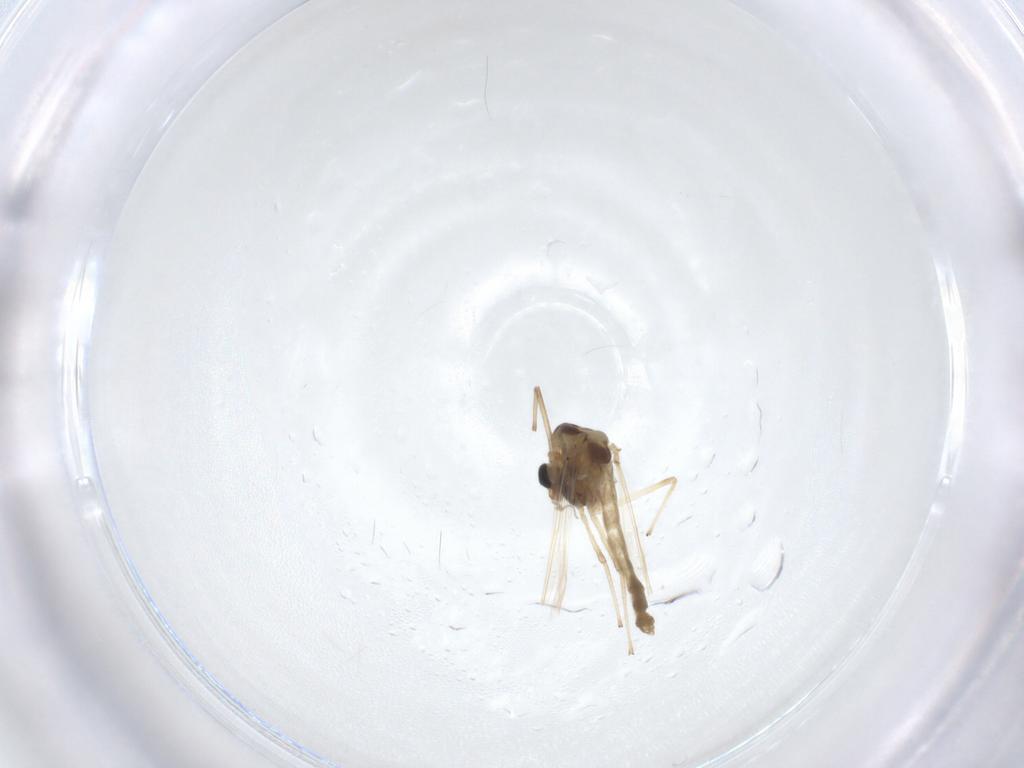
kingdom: Animalia
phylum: Arthropoda
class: Insecta
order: Diptera
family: Chironomidae
